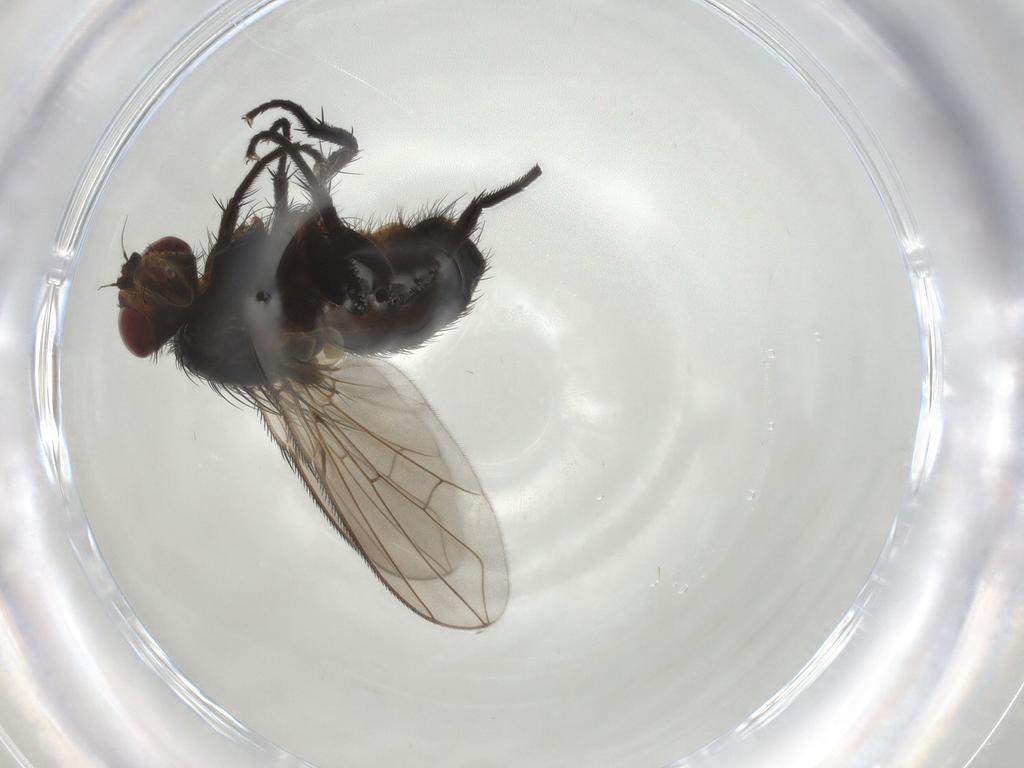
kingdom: Animalia
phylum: Arthropoda
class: Insecta
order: Diptera
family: Tachinidae
